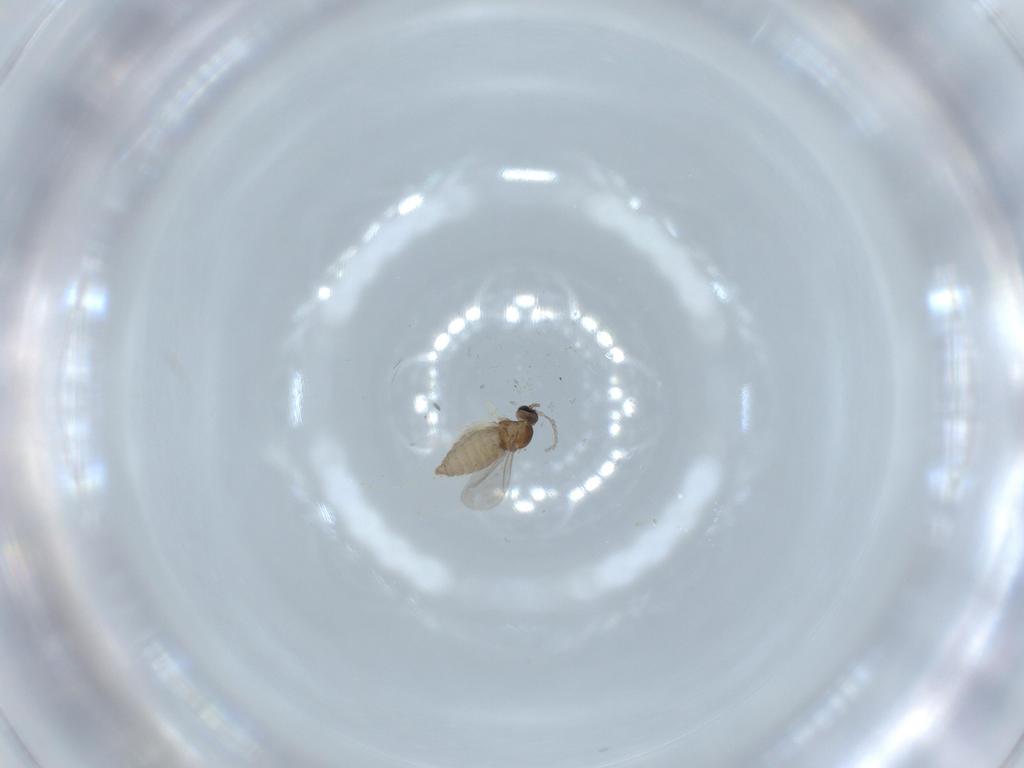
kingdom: Animalia
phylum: Arthropoda
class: Insecta
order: Diptera
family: Cecidomyiidae
